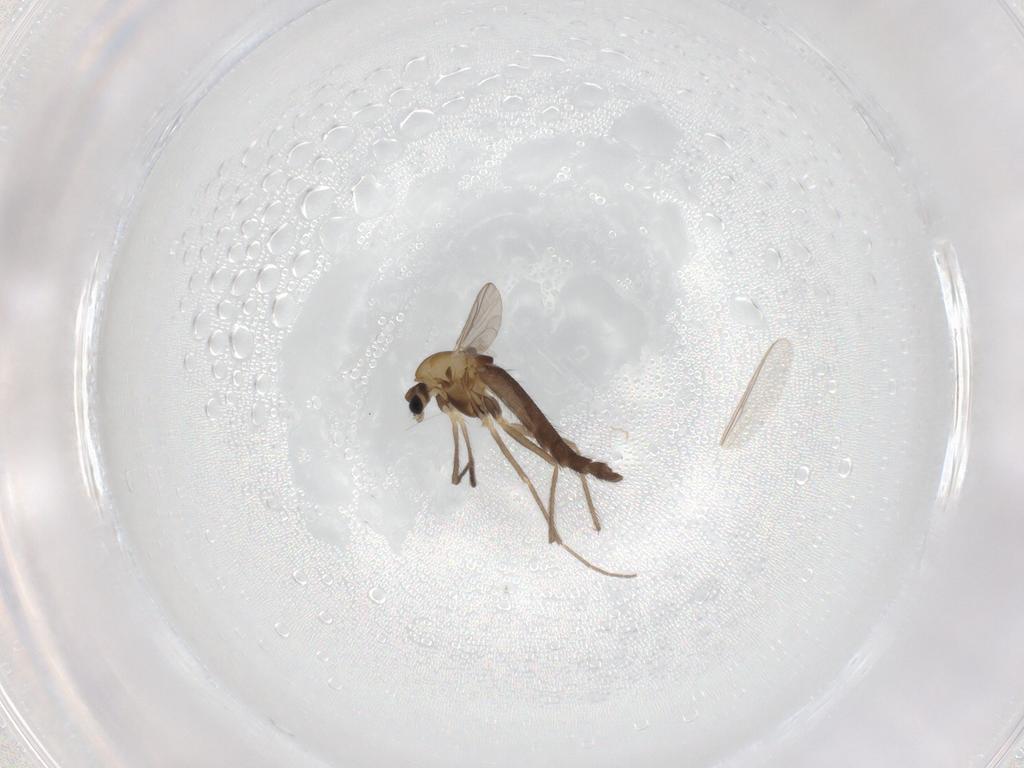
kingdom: Animalia
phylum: Arthropoda
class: Insecta
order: Diptera
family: Chironomidae
